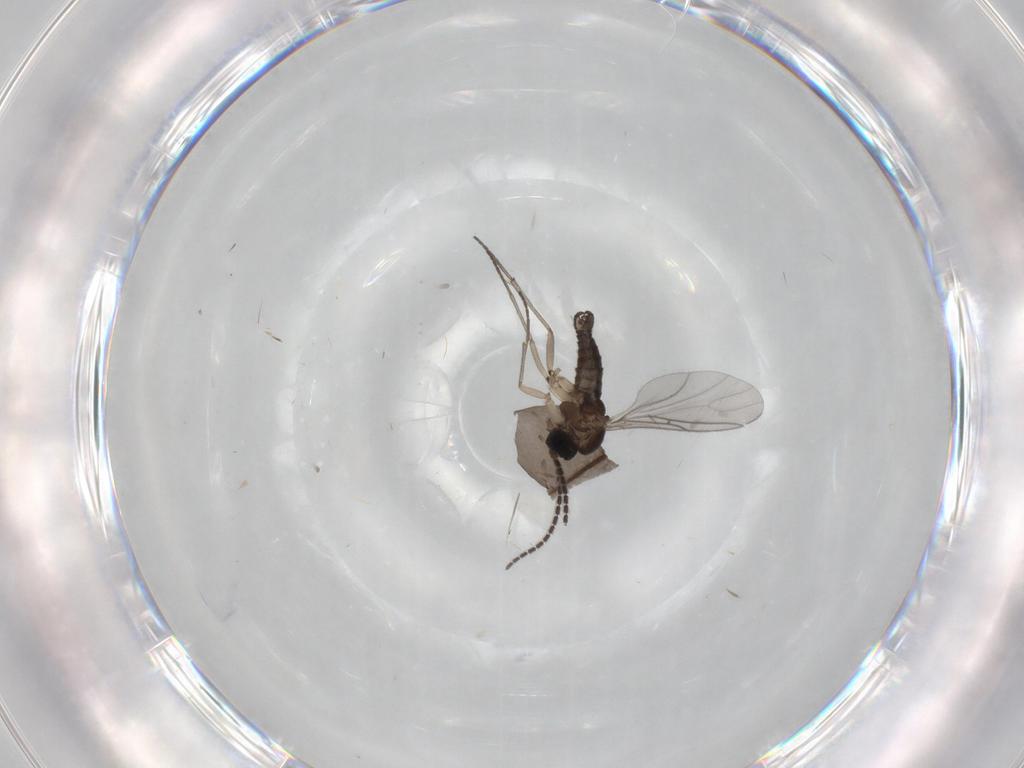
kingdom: Animalia
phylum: Arthropoda
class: Insecta
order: Diptera
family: Sciaridae
